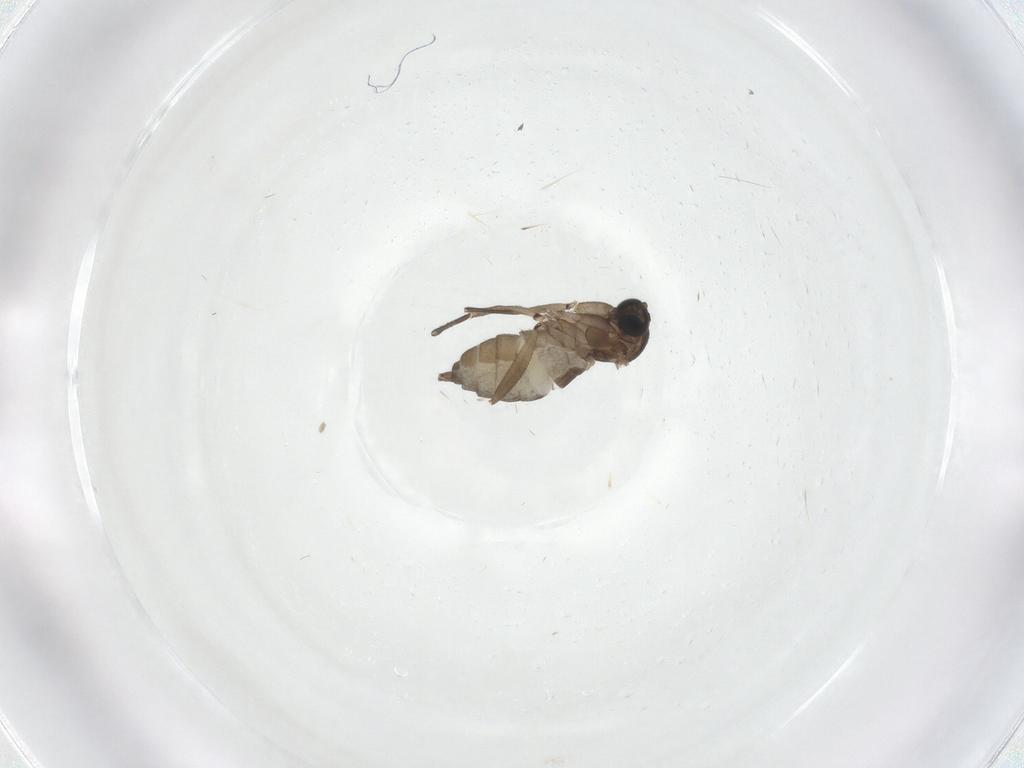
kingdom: Animalia
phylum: Arthropoda
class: Insecta
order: Diptera
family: Sciaridae
